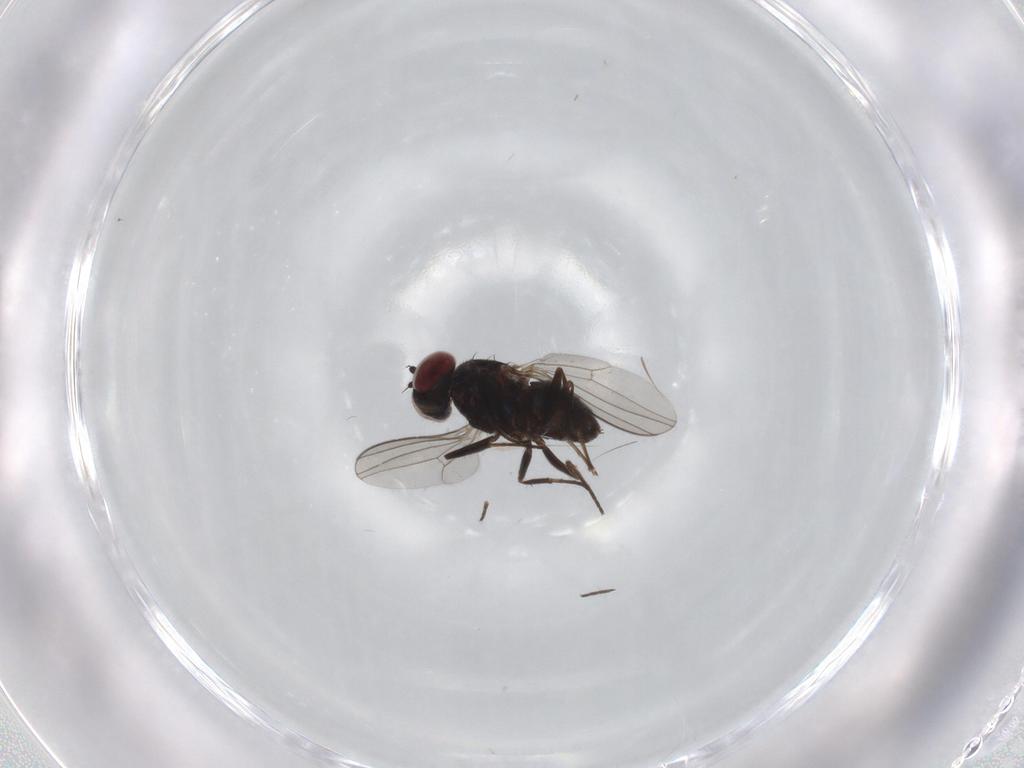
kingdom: Animalia
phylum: Arthropoda
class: Insecta
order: Diptera
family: Dolichopodidae
